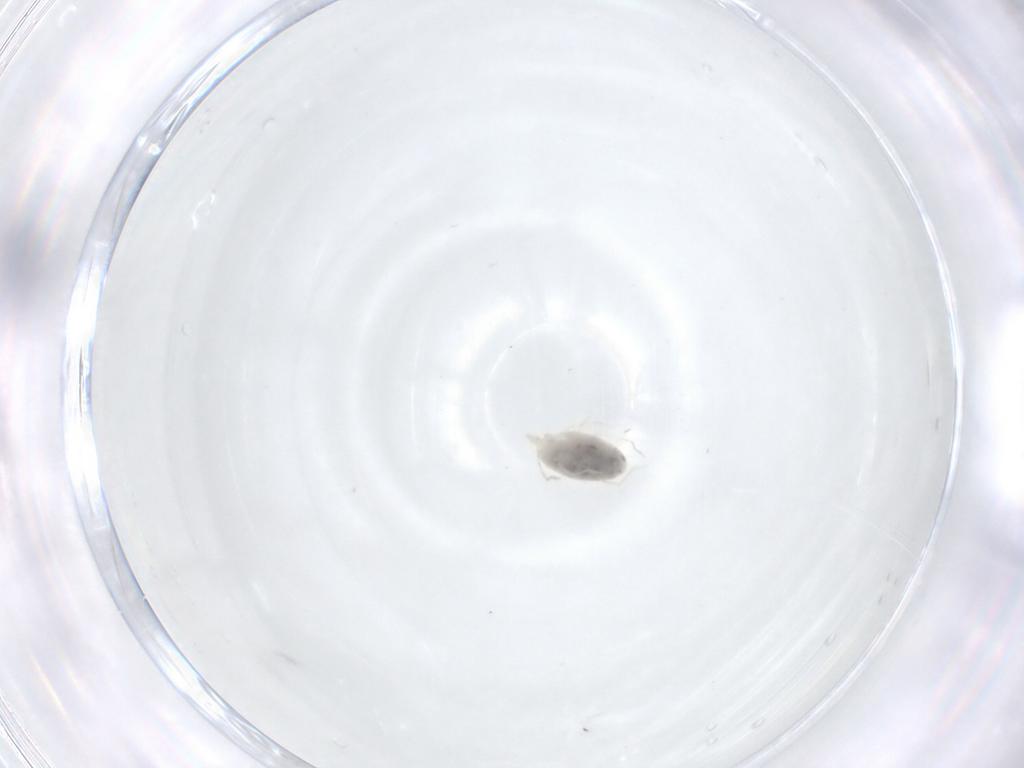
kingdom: Animalia
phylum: Arthropoda
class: Arachnida
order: Trombidiformes
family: Erythraeidae
